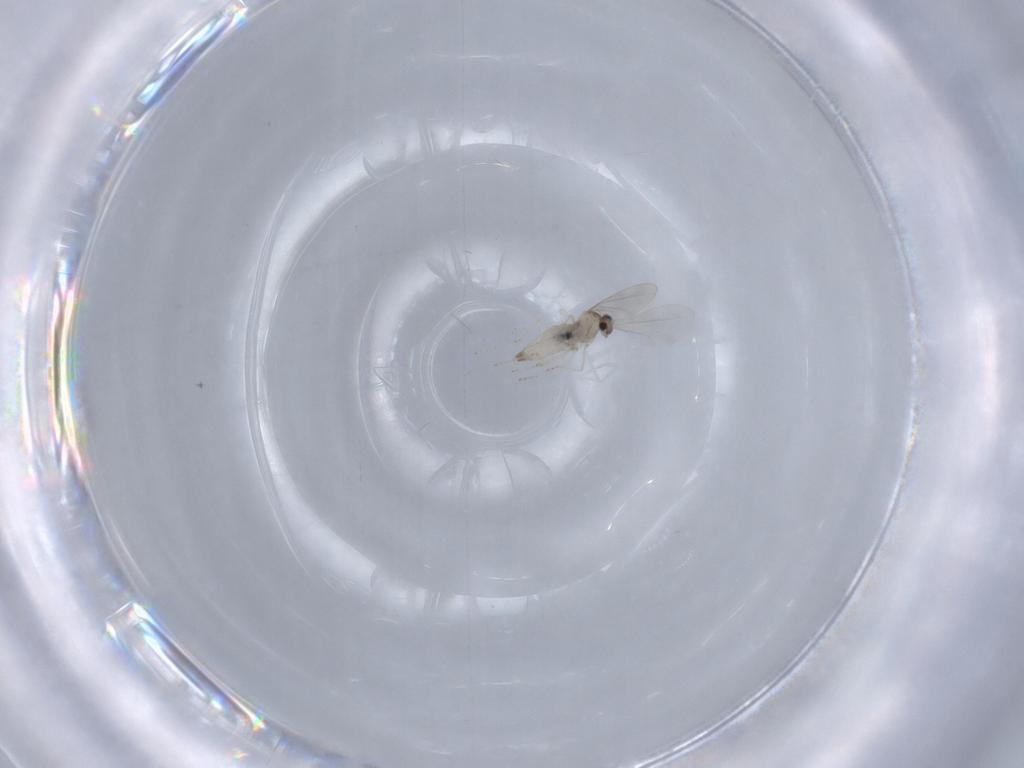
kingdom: Animalia
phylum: Arthropoda
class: Insecta
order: Diptera
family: Cecidomyiidae
